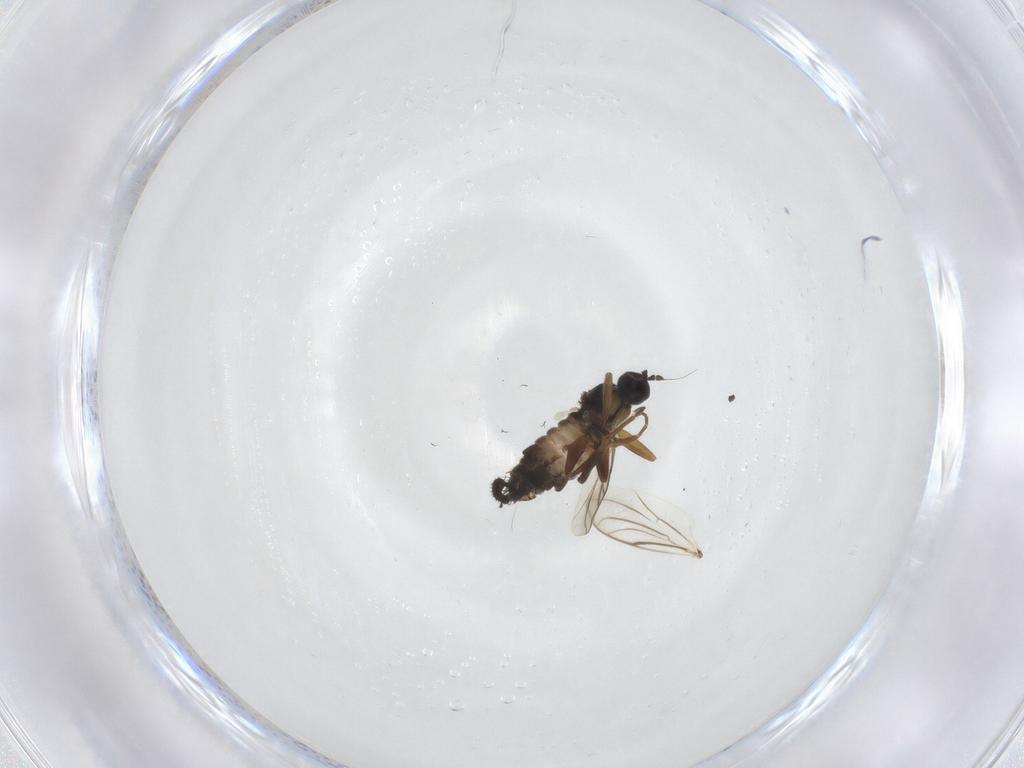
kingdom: Animalia
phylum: Arthropoda
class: Insecta
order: Diptera
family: Hybotidae
